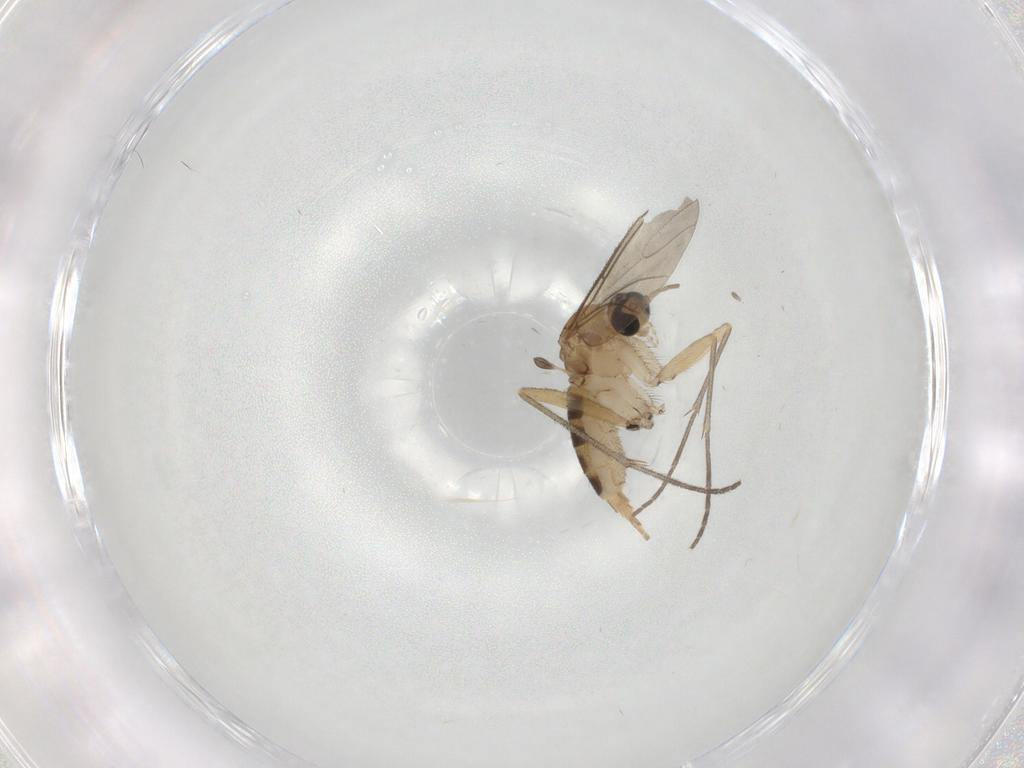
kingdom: Animalia
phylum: Arthropoda
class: Insecta
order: Diptera
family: Sciaridae
